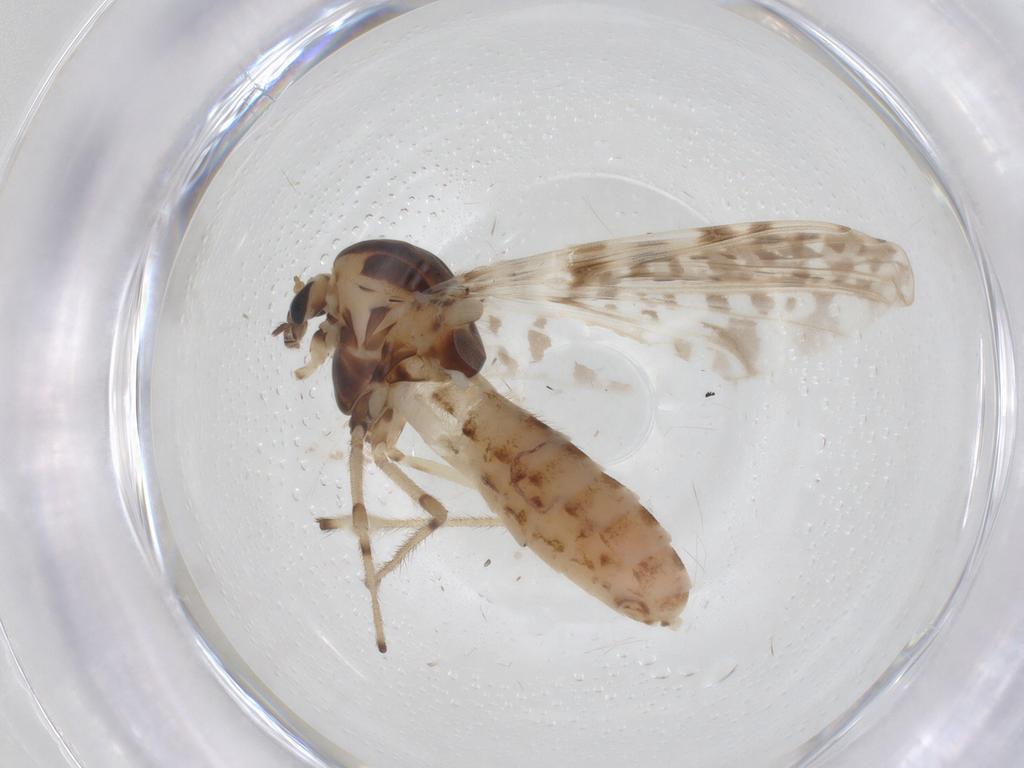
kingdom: Animalia
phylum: Arthropoda
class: Insecta
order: Diptera
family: Chironomidae
